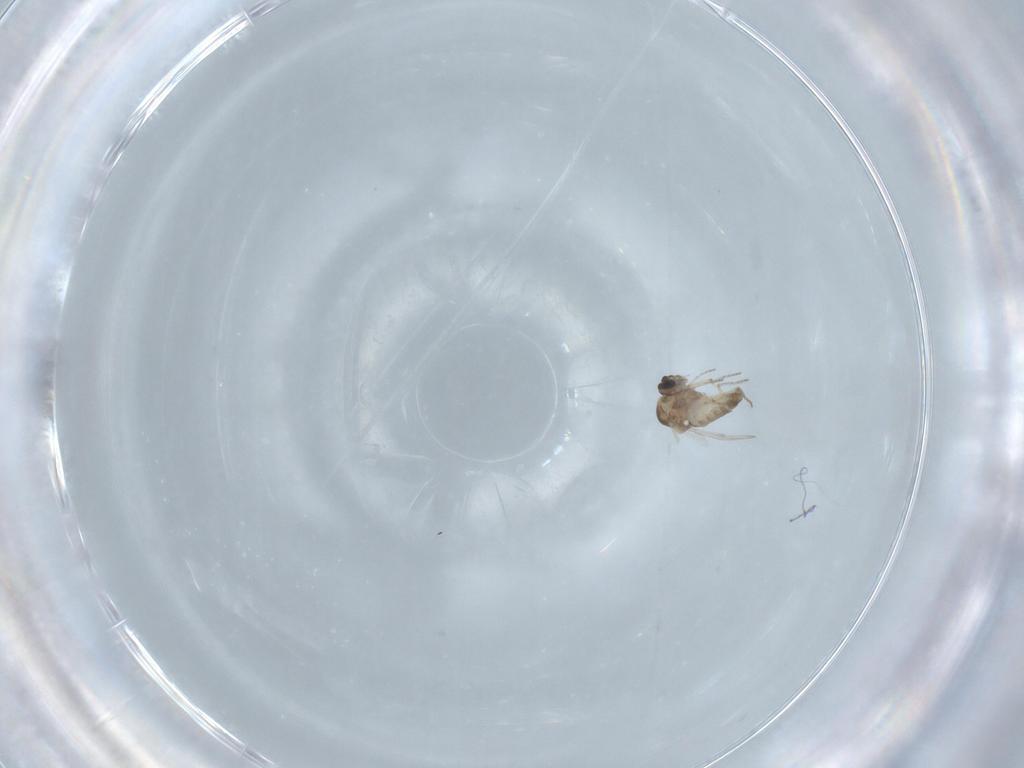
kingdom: Animalia
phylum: Arthropoda
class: Insecta
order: Diptera
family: Ceratopogonidae
